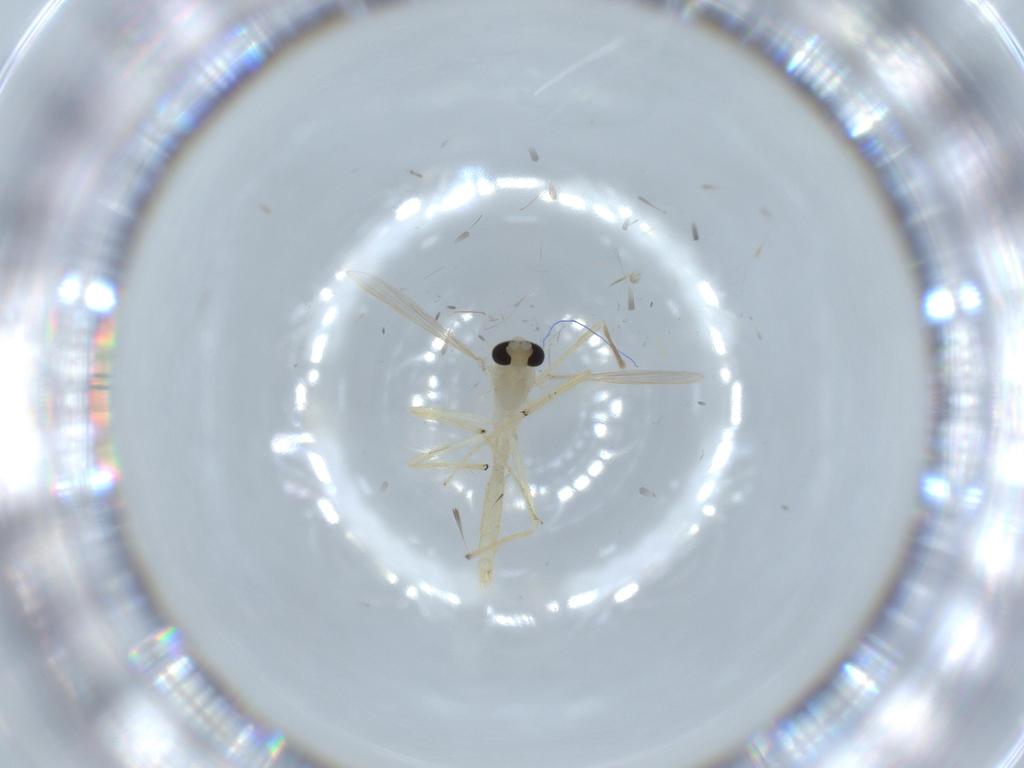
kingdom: Animalia
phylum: Arthropoda
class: Insecta
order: Diptera
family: Chironomidae
